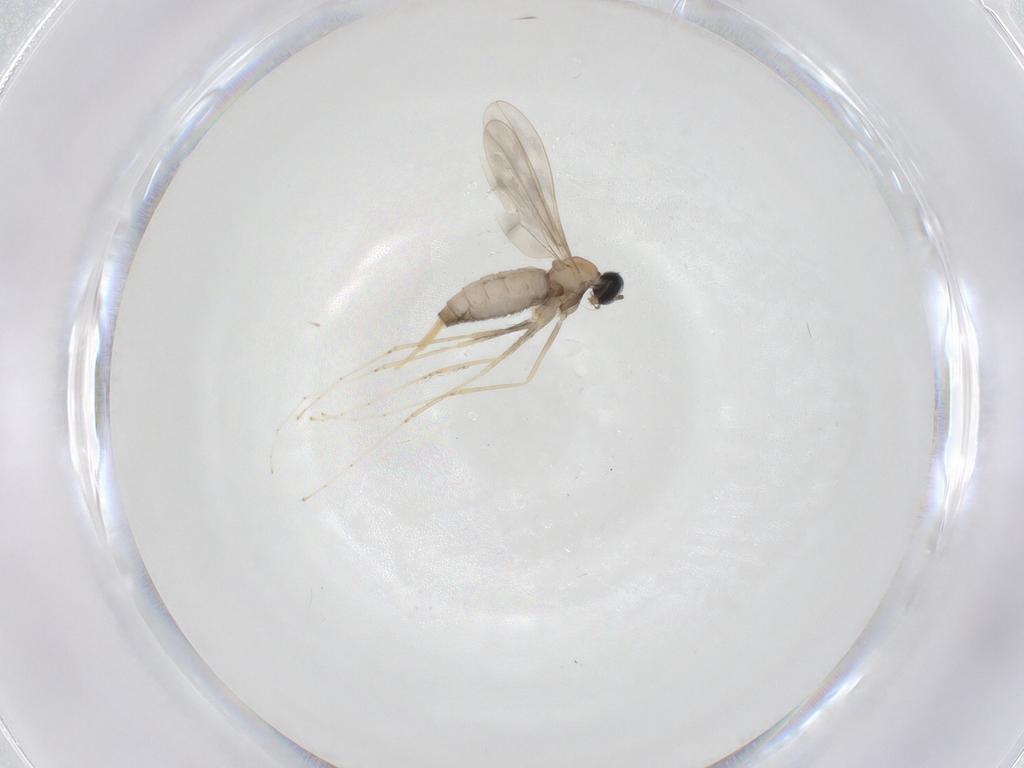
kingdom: Animalia
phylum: Arthropoda
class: Insecta
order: Diptera
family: Cecidomyiidae
